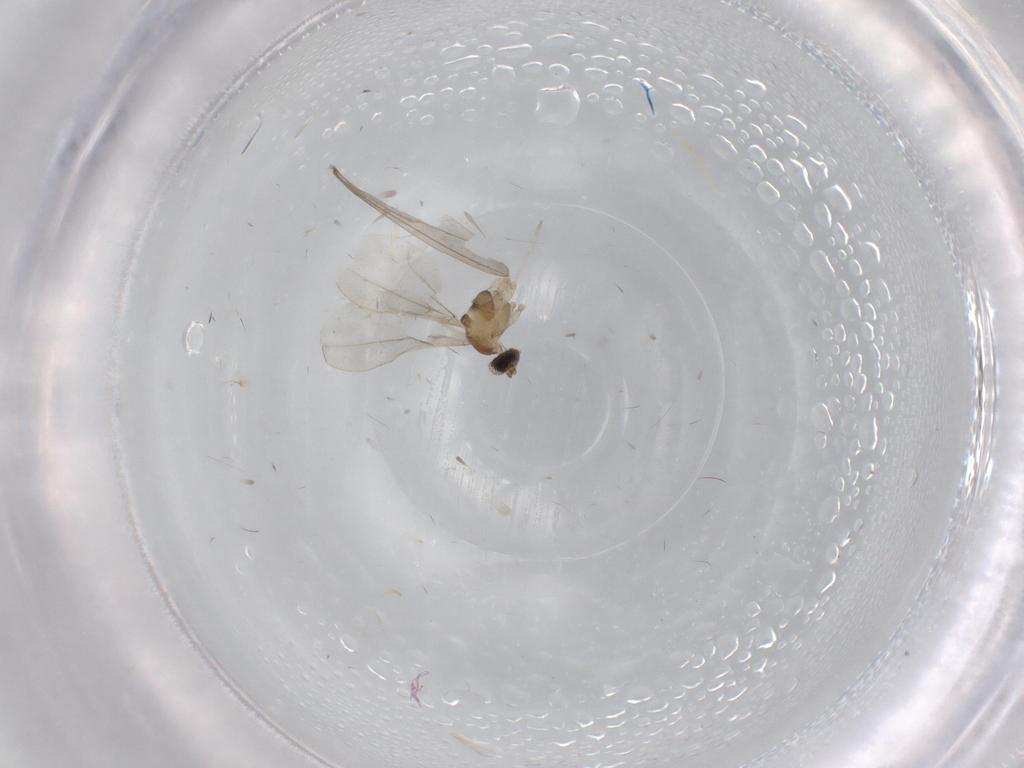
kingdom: Animalia
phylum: Arthropoda
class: Insecta
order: Diptera
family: Cecidomyiidae
